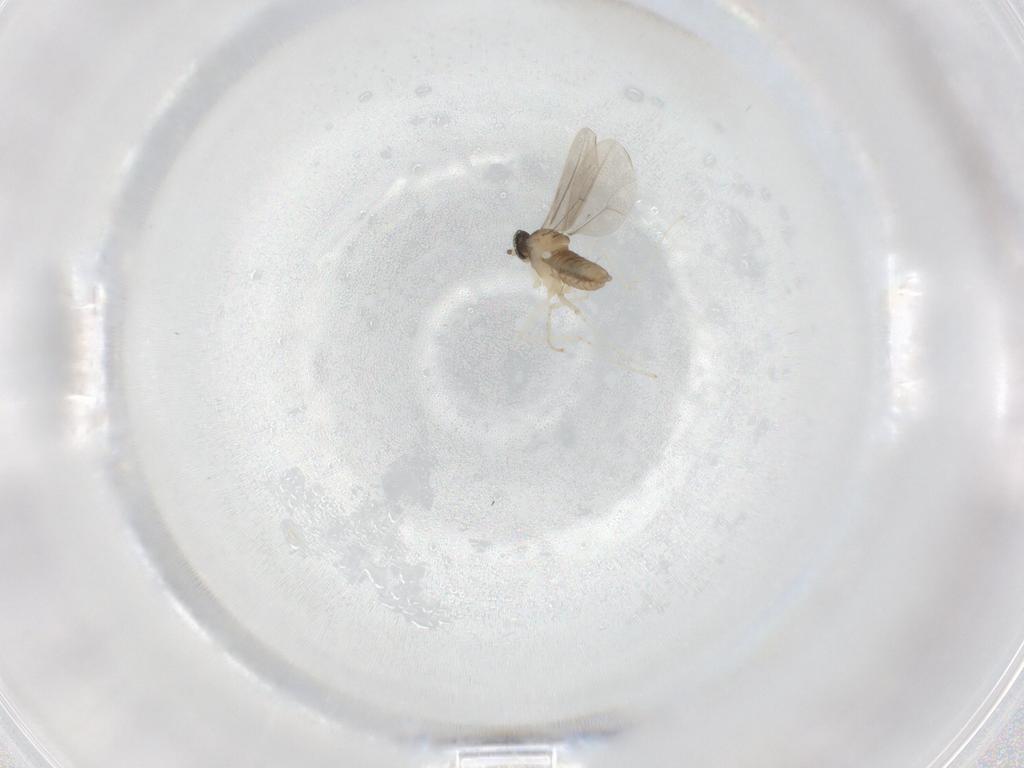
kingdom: Animalia
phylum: Arthropoda
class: Insecta
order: Diptera
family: Cecidomyiidae
